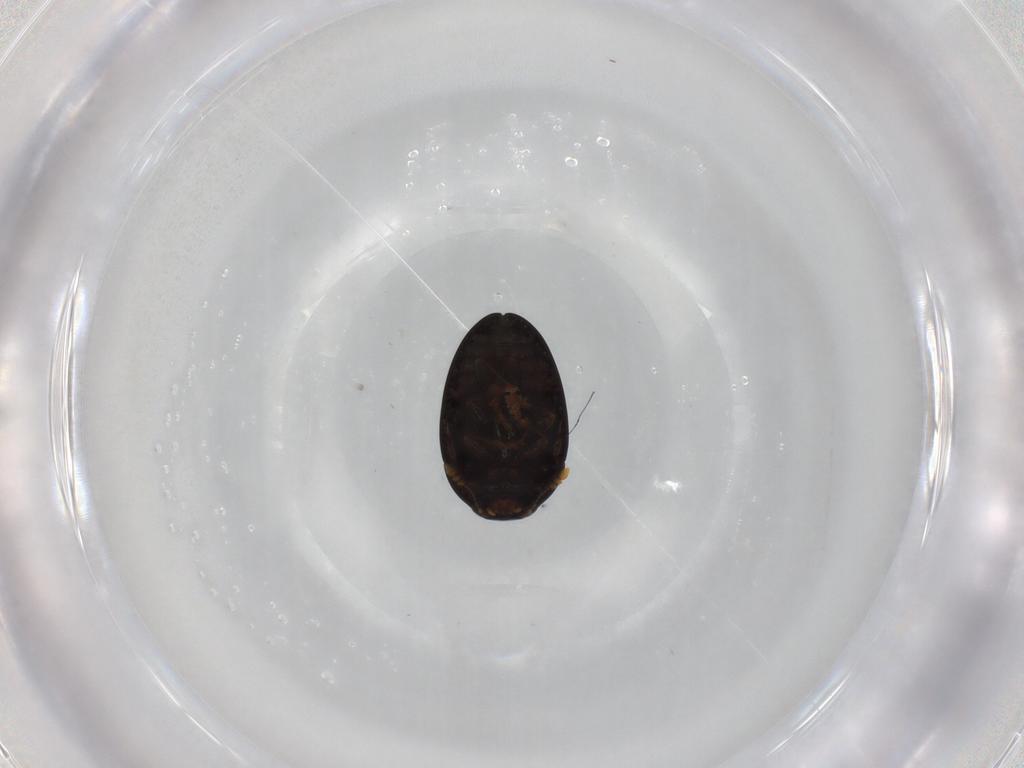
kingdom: Animalia
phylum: Arthropoda
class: Insecta
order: Coleoptera
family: Phalacridae
